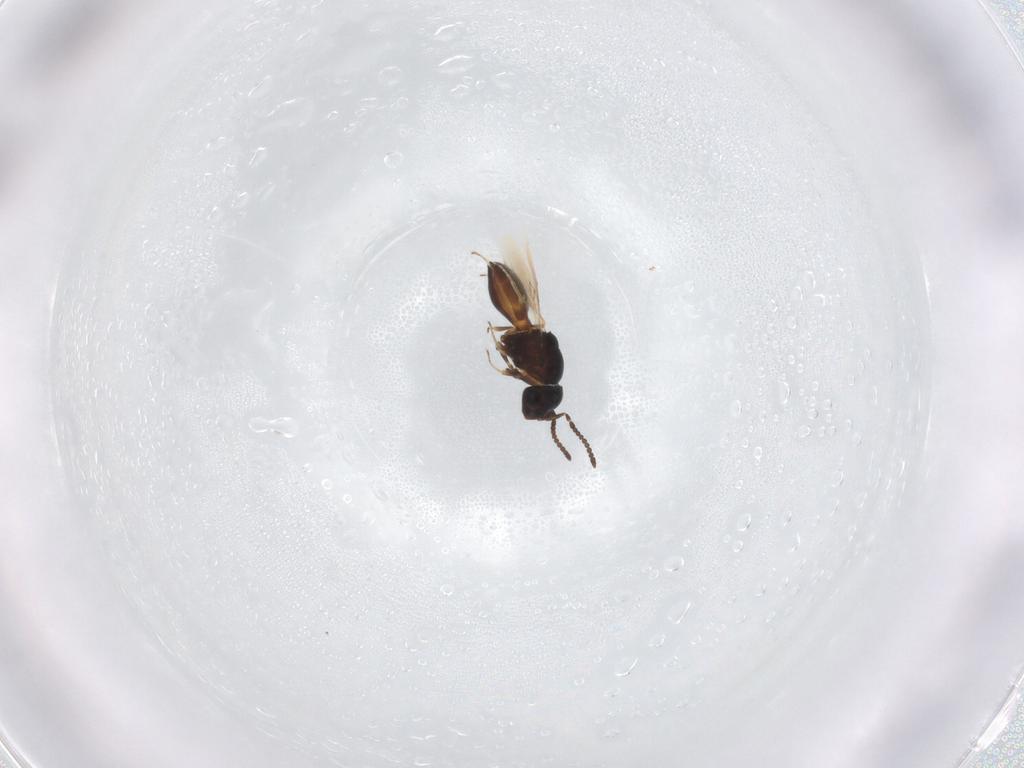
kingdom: Animalia
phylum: Arthropoda
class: Insecta
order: Hymenoptera
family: Scelionidae
